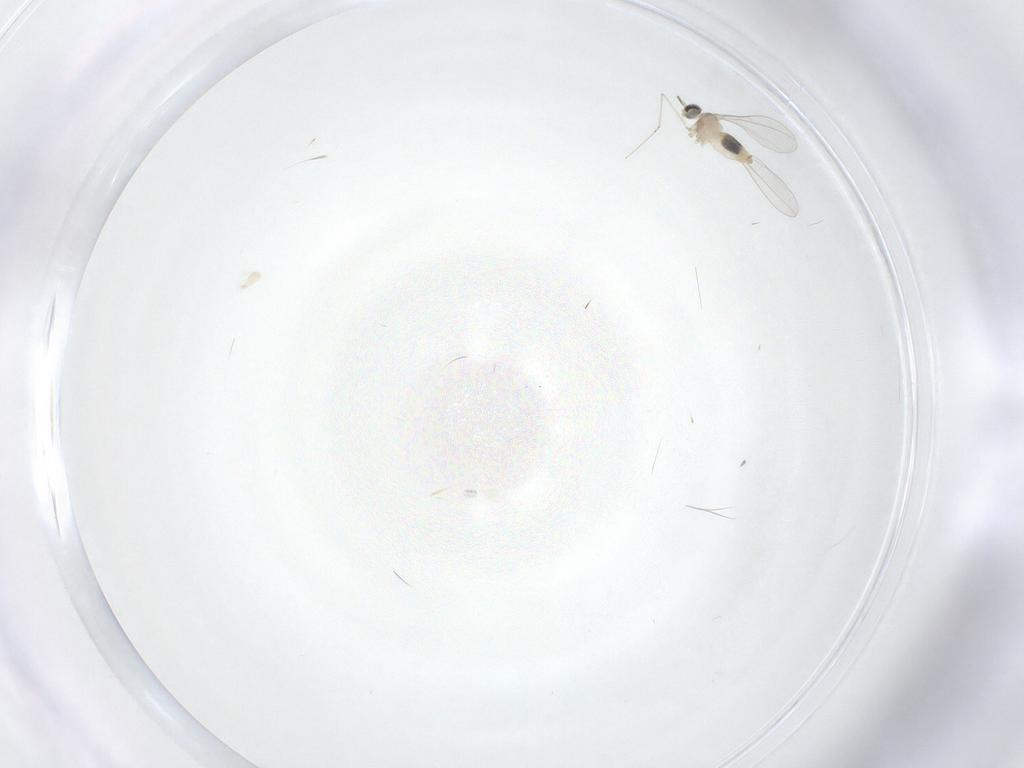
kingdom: Animalia
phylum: Arthropoda
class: Insecta
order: Diptera
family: Cecidomyiidae
